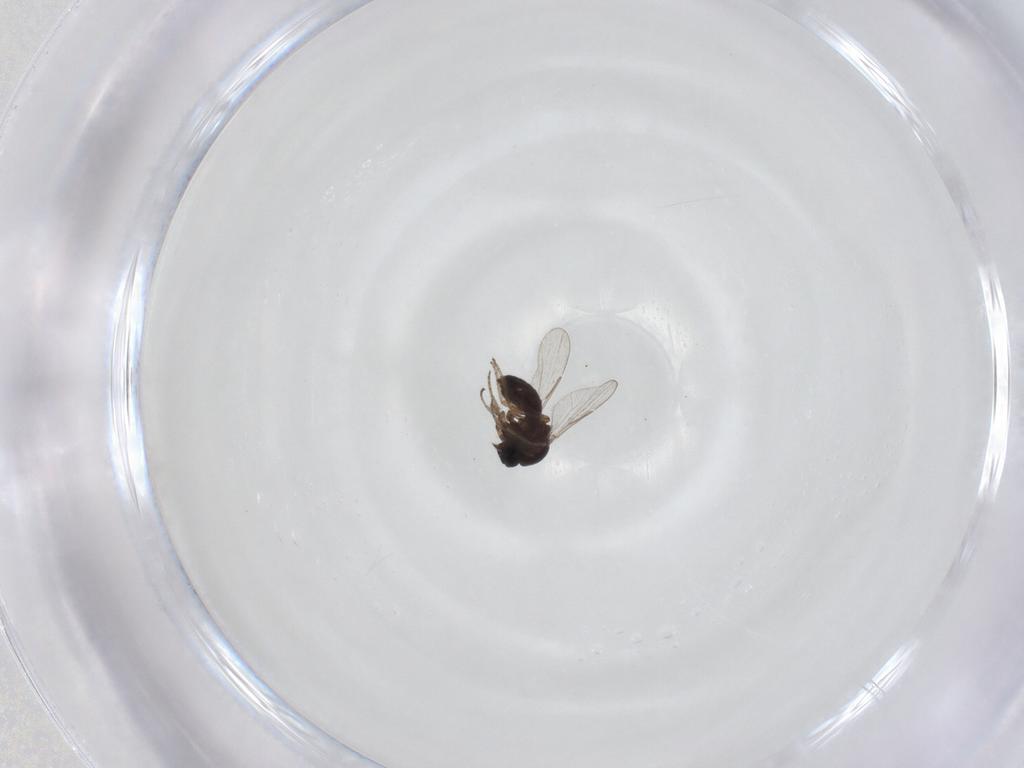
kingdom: Animalia
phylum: Arthropoda
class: Insecta
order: Diptera
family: Ceratopogonidae
